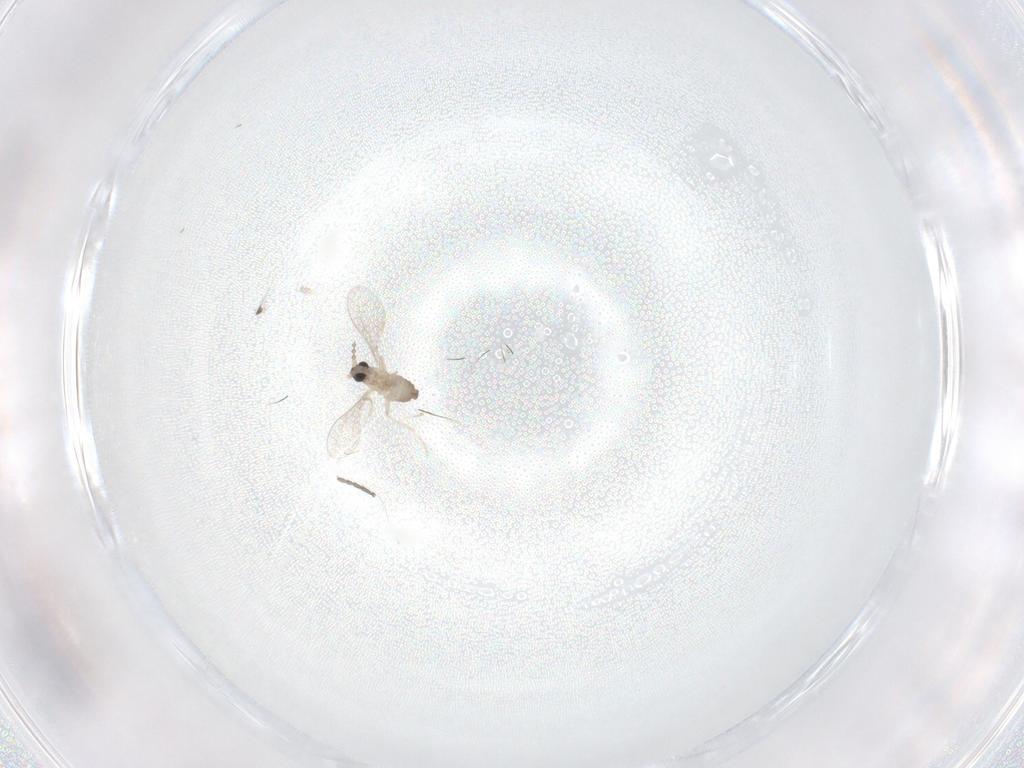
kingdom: Animalia
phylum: Arthropoda
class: Insecta
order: Diptera
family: Cecidomyiidae
